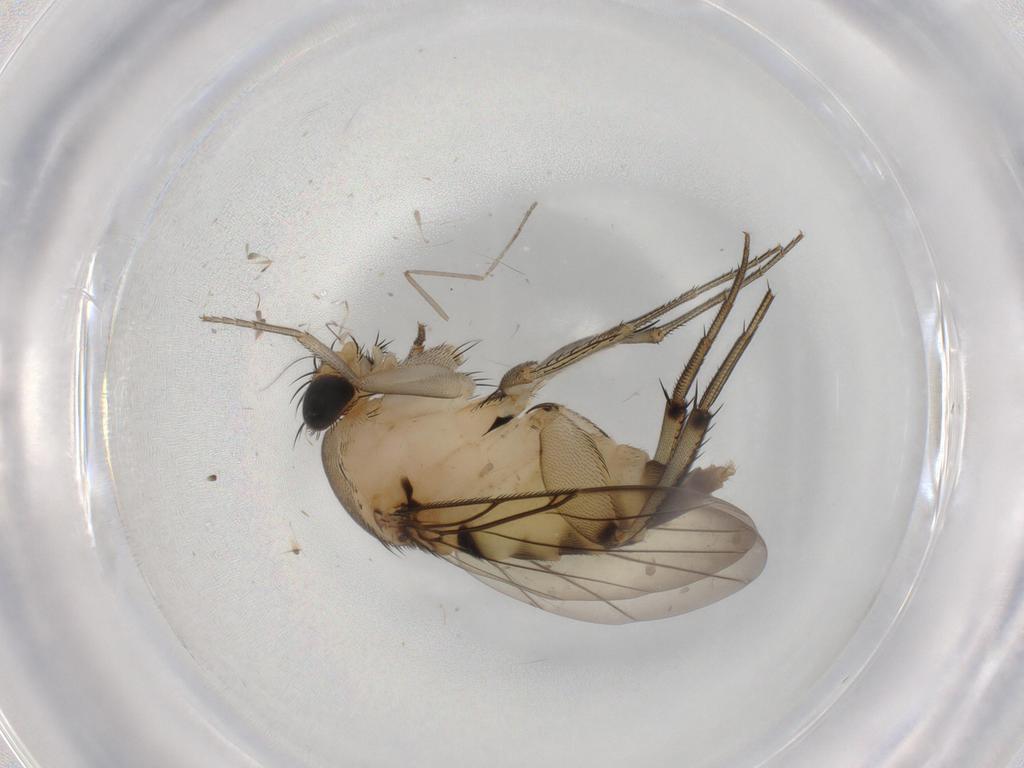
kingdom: Animalia
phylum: Arthropoda
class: Insecta
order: Diptera
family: Phoridae
